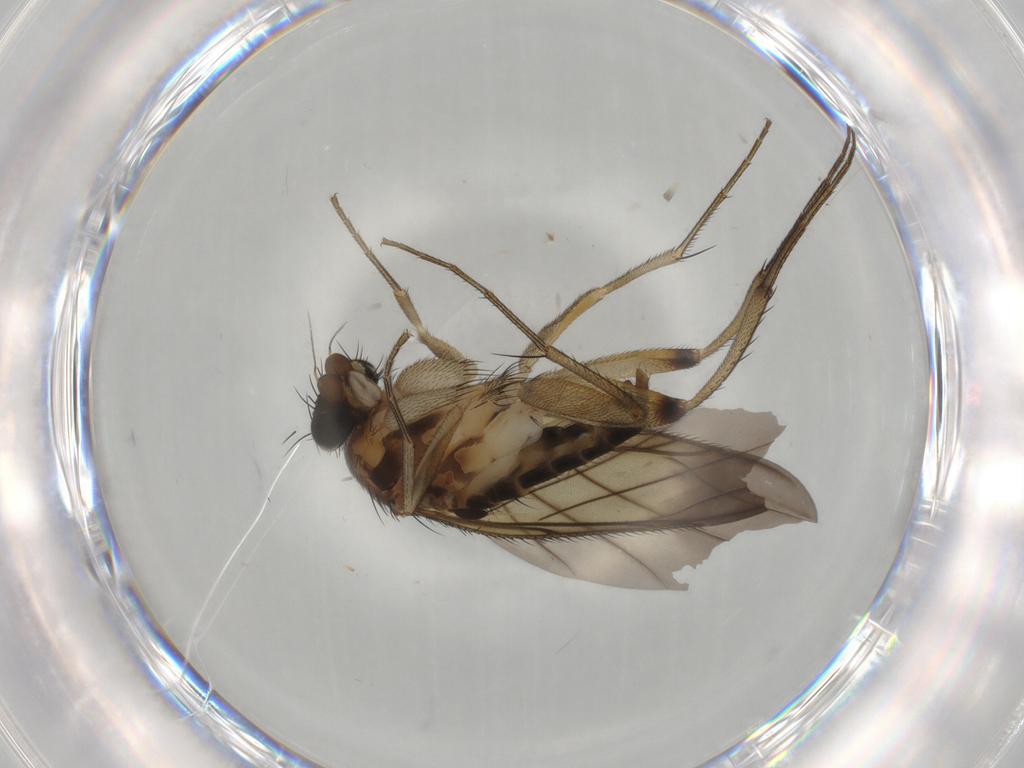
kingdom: Animalia
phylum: Arthropoda
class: Insecta
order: Diptera
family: Phoridae
